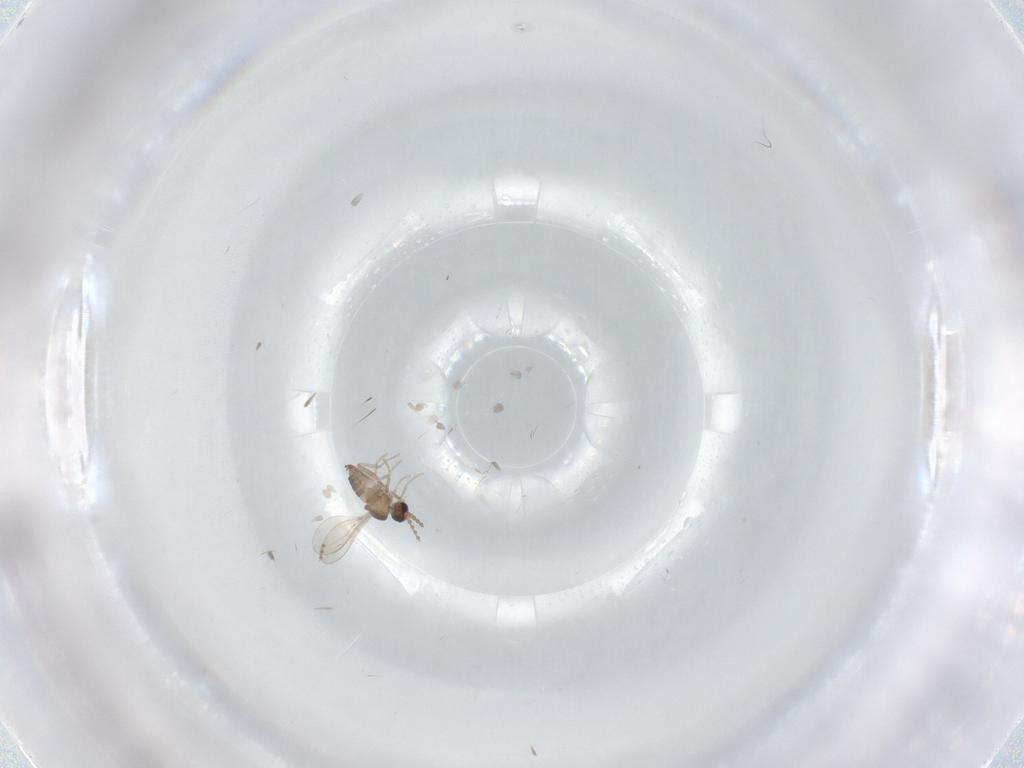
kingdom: Animalia
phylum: Arthropoda
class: Insecta
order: Diptera
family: Cecidomyiidae
